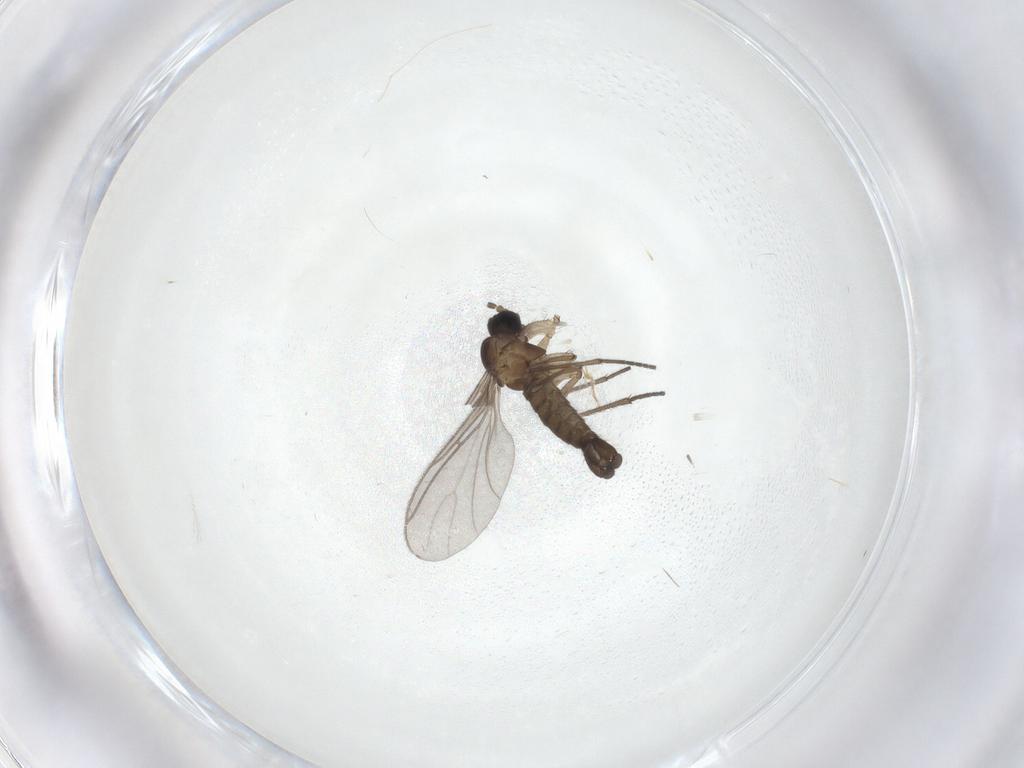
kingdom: Animalia
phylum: Arthropoda
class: Insecta
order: Diptera
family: Sciaridae
